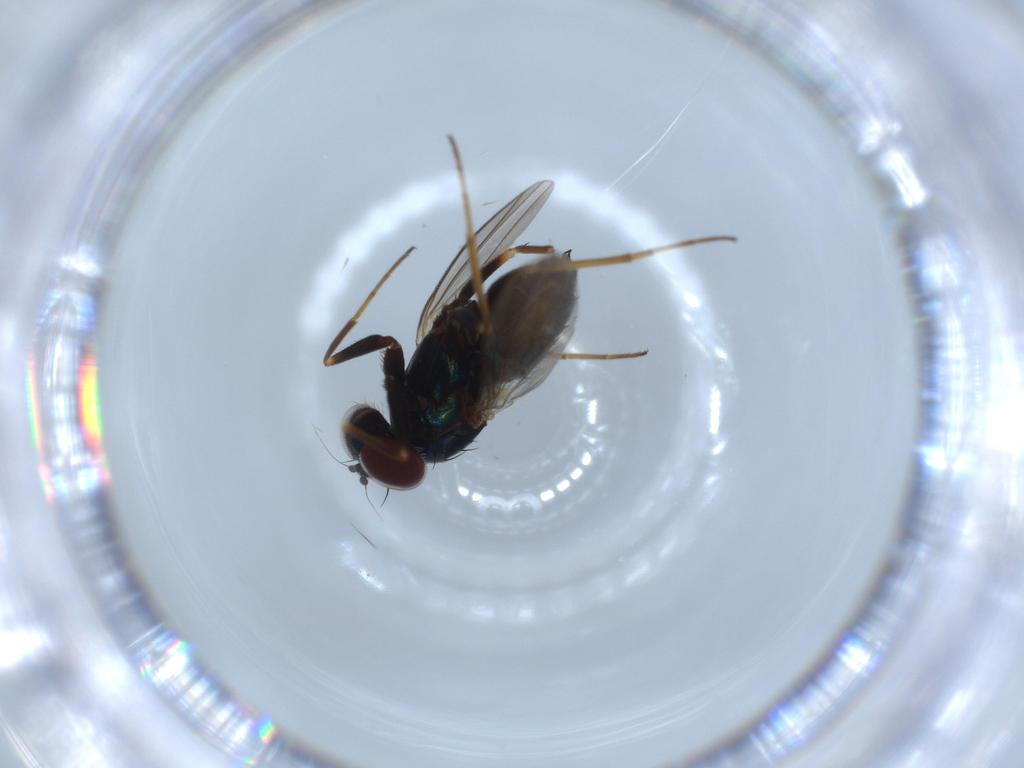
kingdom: Animalia
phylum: Arthropoda
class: Insecta
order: Diptera
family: Dolichopodidae
